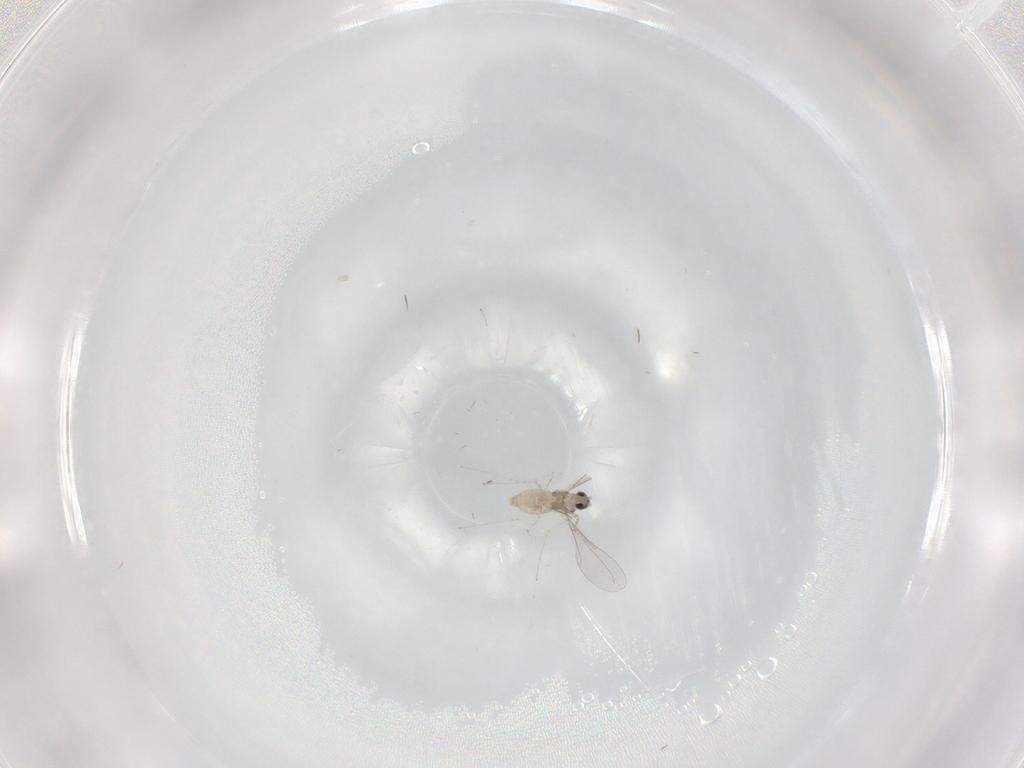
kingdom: Animalia
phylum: Arthropoda
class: Insecta
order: Diptera
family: Cecidomyiidae
